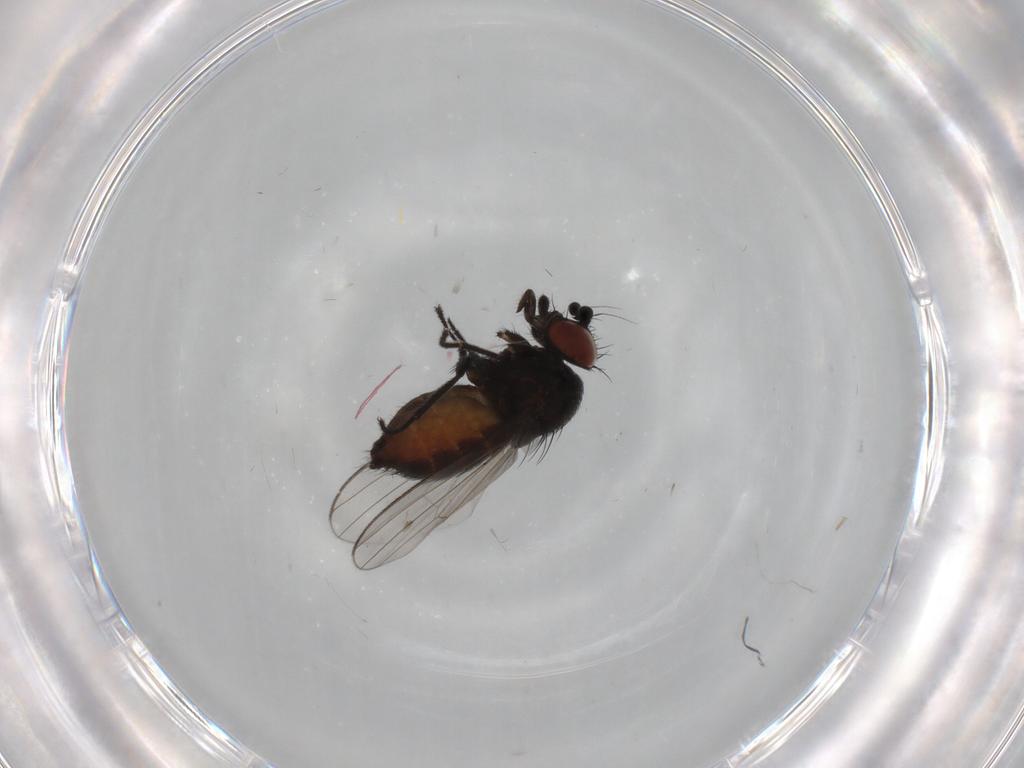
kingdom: Animalia
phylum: Arthropoda
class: Insecta
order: Diptera
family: Milichiidae
